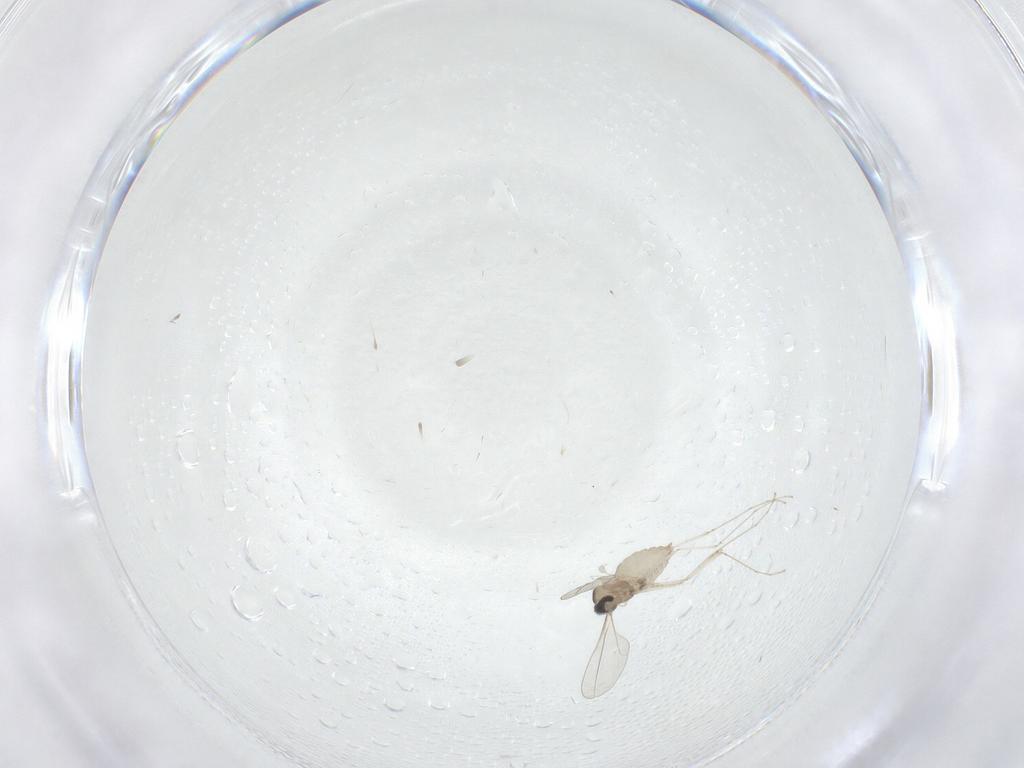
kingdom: Animalia
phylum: Arthropoda
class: Insecta
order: Diptera
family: Cecidomyiidae
